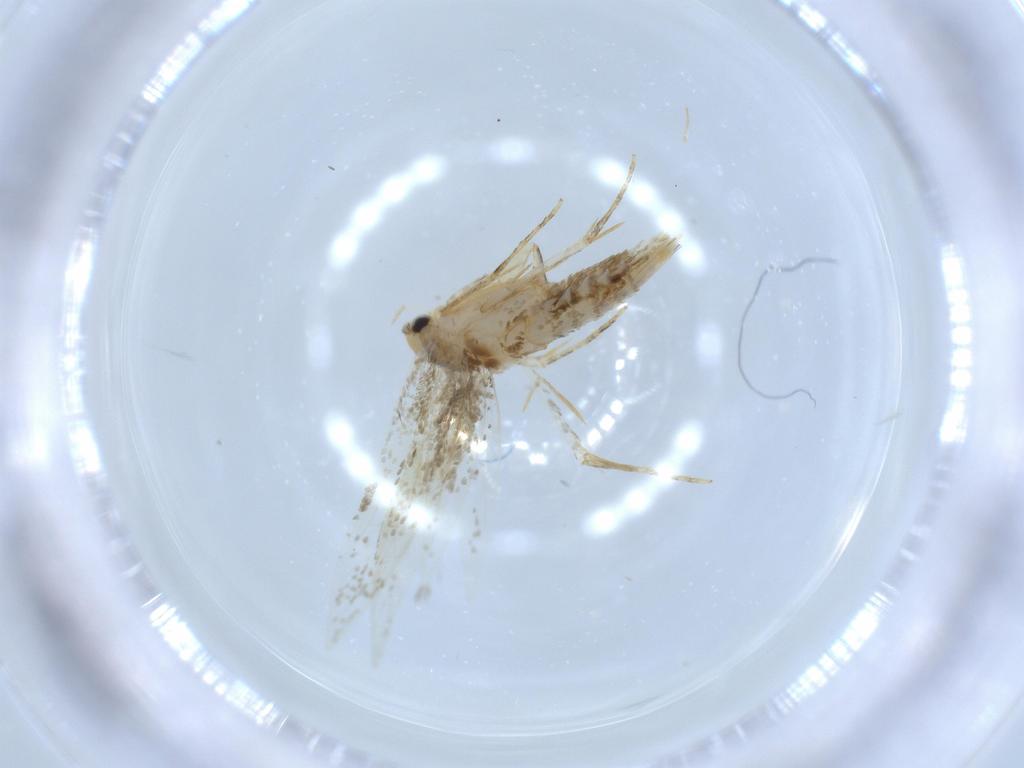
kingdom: Animalia
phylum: Arthropoda
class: Insecta
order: Lepidoptera
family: Tineidae
